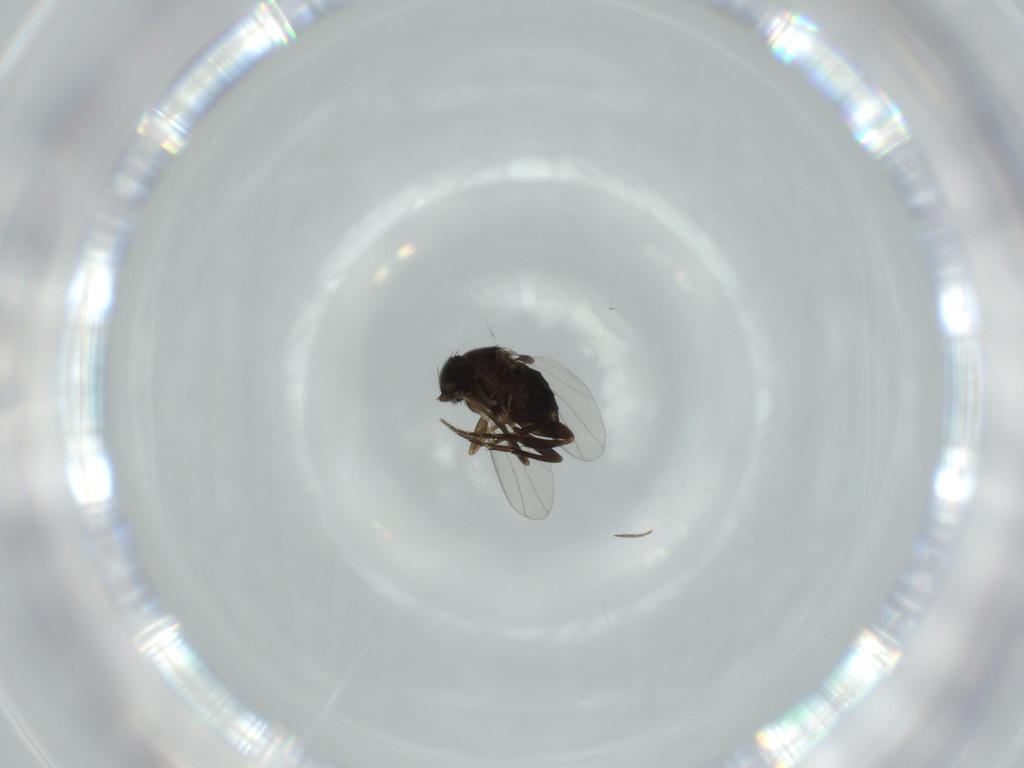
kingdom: Animalia
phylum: Arthropoda
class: Insecta
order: Diptera
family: Phoridae
